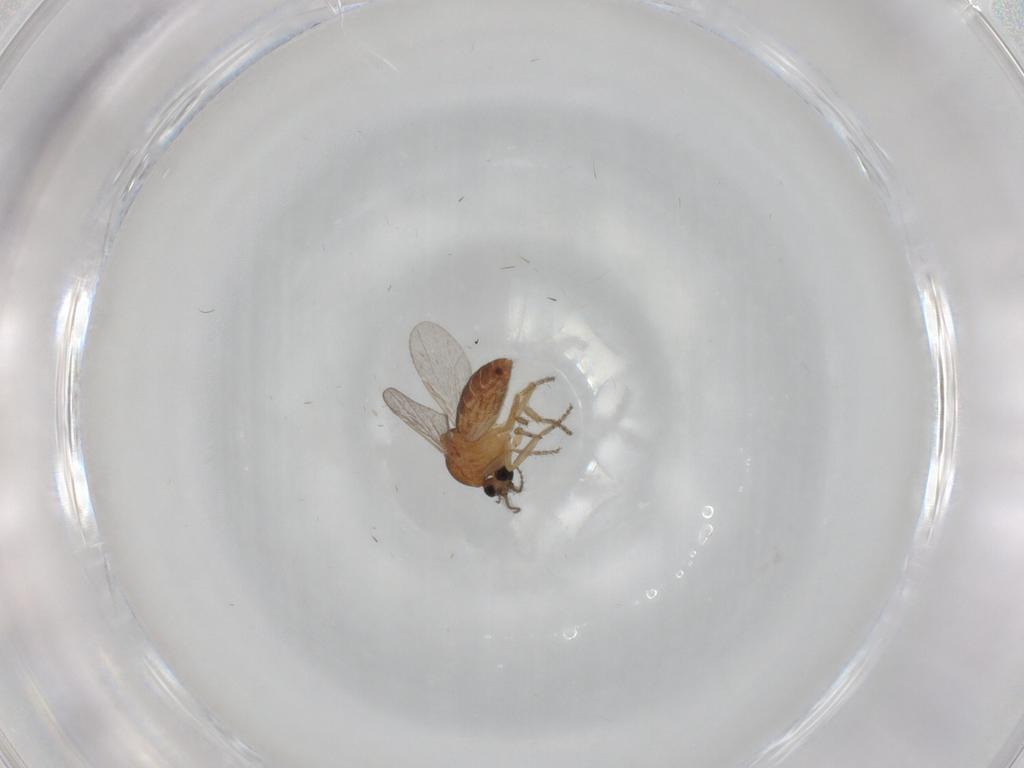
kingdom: Animalia
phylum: Arthropoda
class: Insecta
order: Diptera
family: Ceratopogonidae
